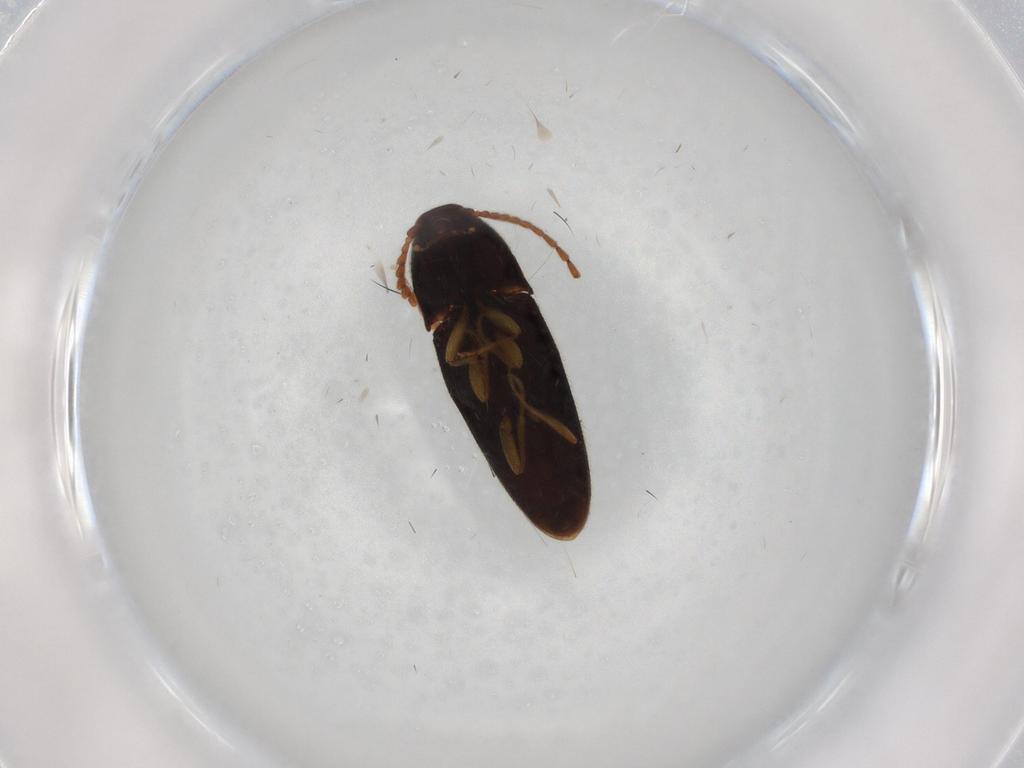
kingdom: Animalia
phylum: Arthropoda
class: Insecta
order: Coleoptera
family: Elateridae
